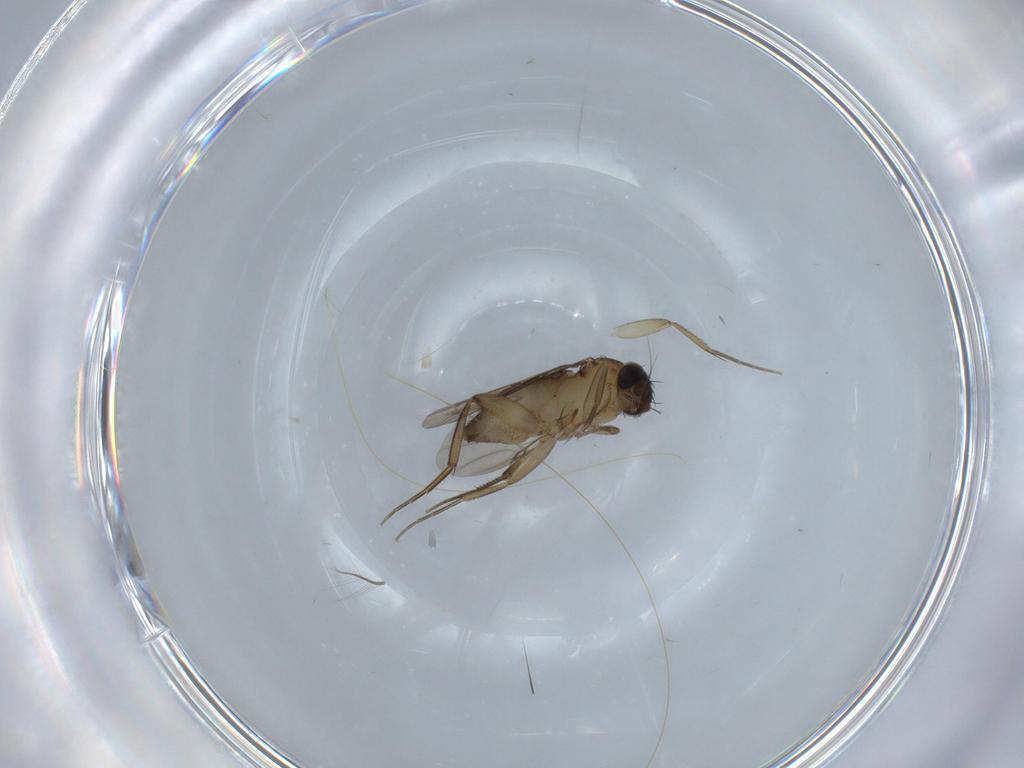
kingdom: Animalia
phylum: Arthropoda
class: Insecta
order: Diptera
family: Phoridae
